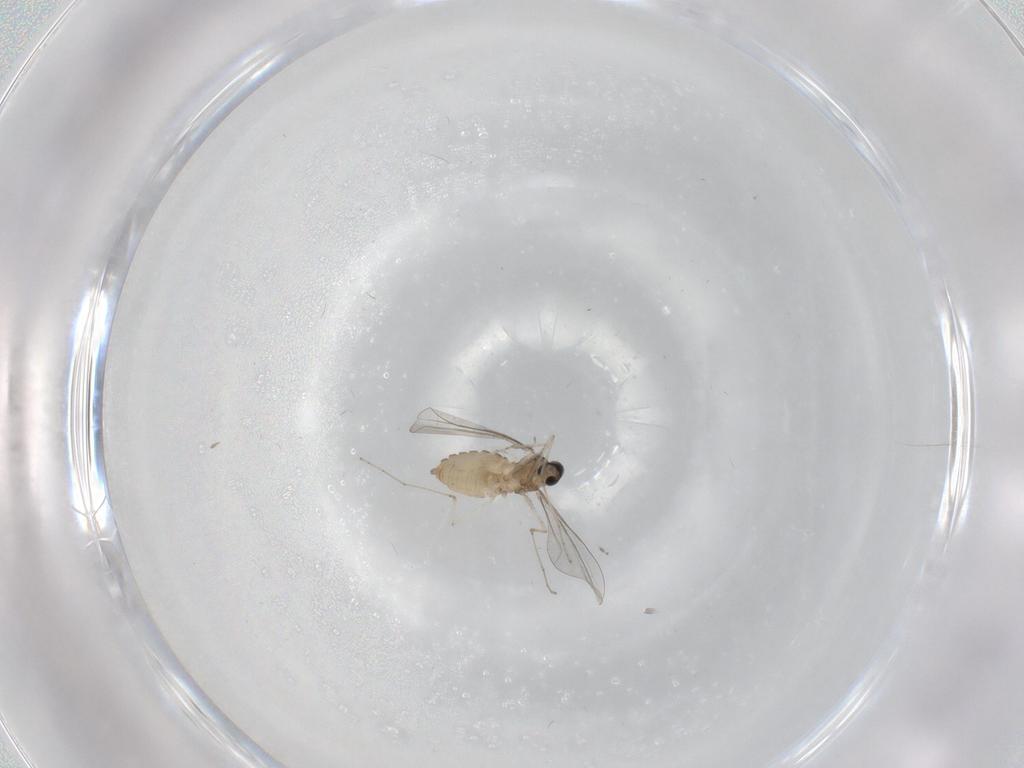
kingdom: Animalia
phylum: Arthropoda
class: Insecta
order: Diptera
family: Cecidomyiidae
